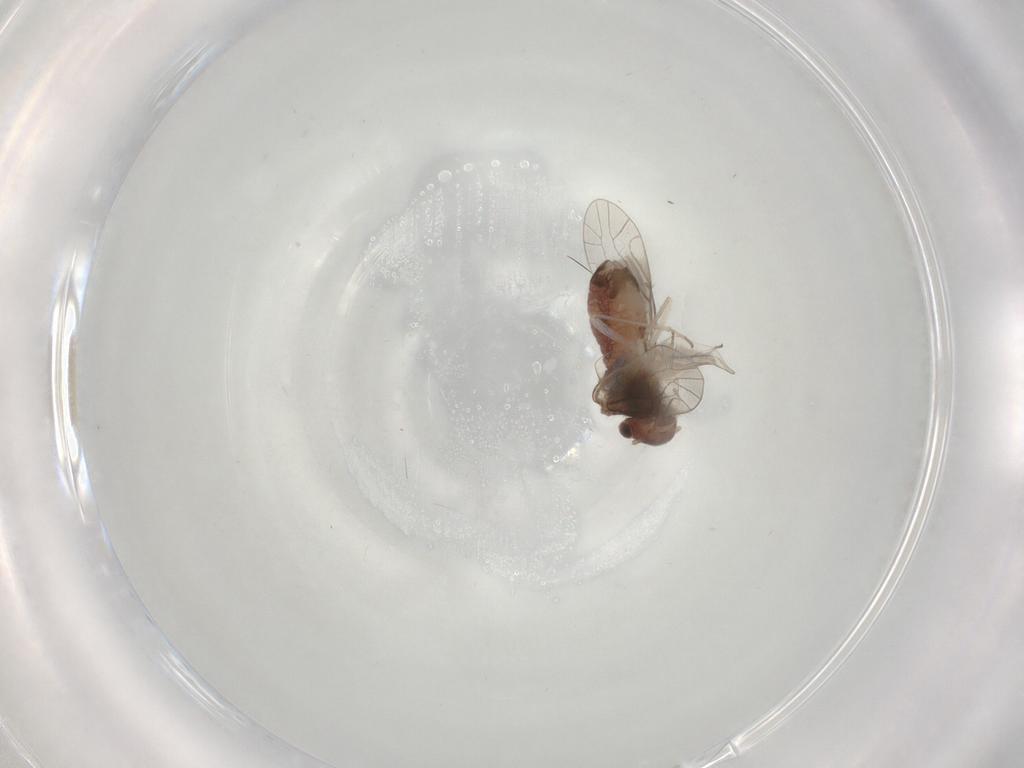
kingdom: Animalia
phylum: Arthropoda
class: Insecta
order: Psocodea
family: Caeciliusidae
